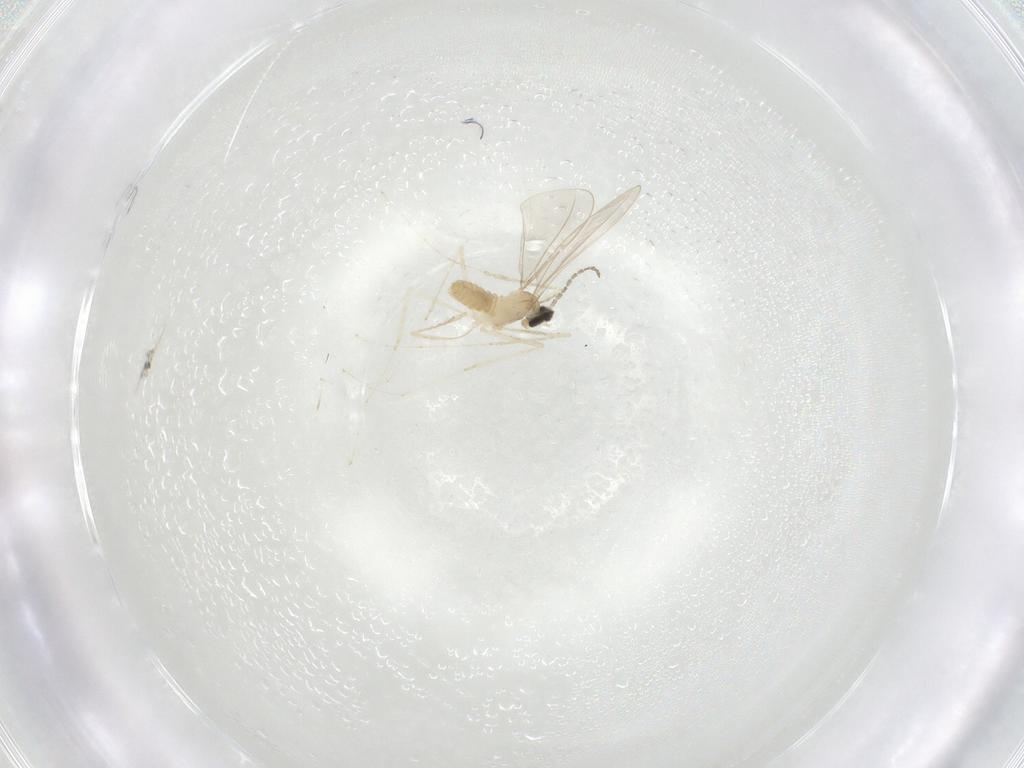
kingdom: Animalia
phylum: Arthropoda
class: Insecta
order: Diptera
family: Cecidomyiidae
